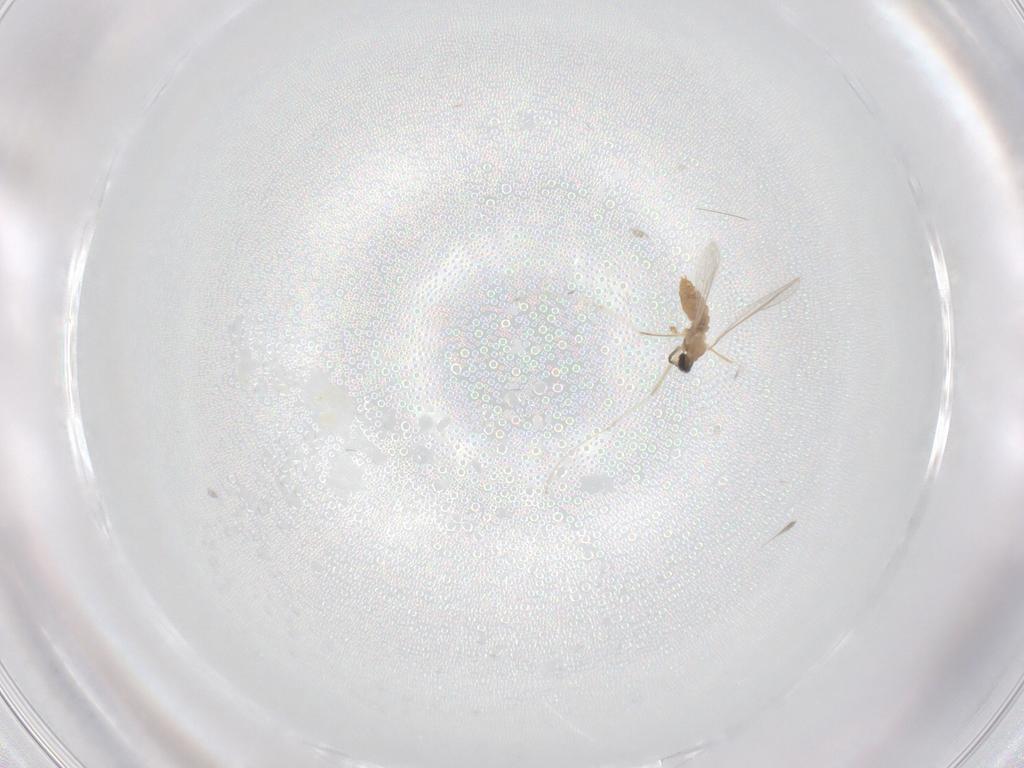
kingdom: Animalia
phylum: Arthropoda
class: Insecta
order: Diptera
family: Cecidomyiidae
